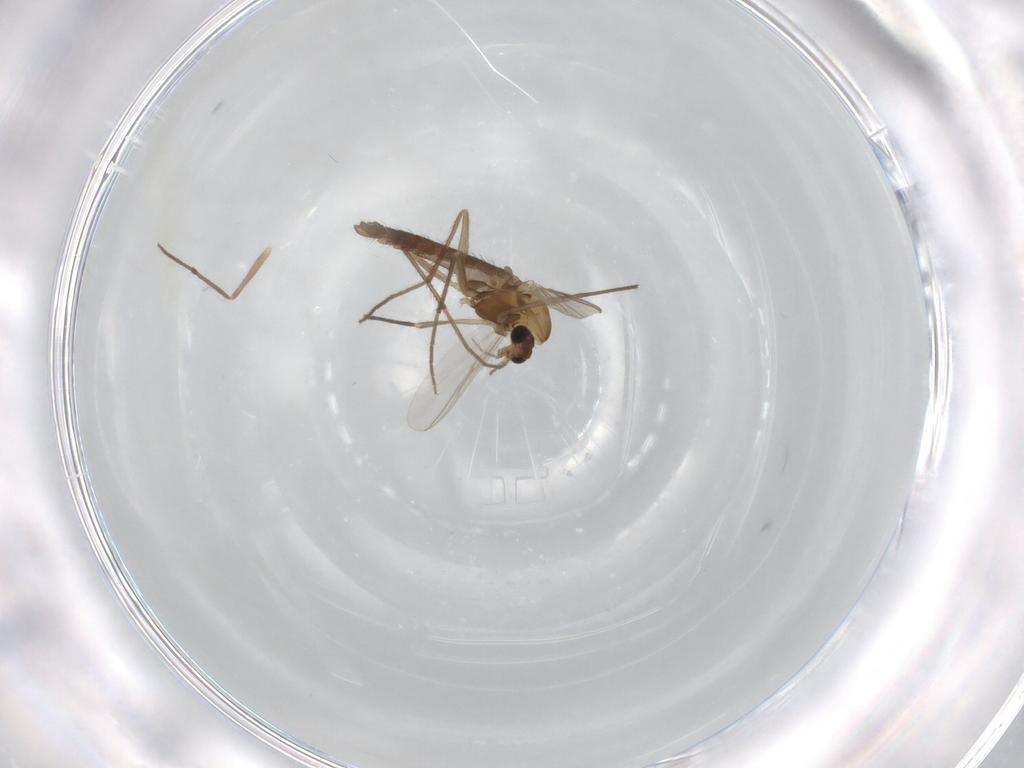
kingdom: Animalia
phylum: Arthropoda
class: Insecta
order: Diptera
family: Chironomidae
